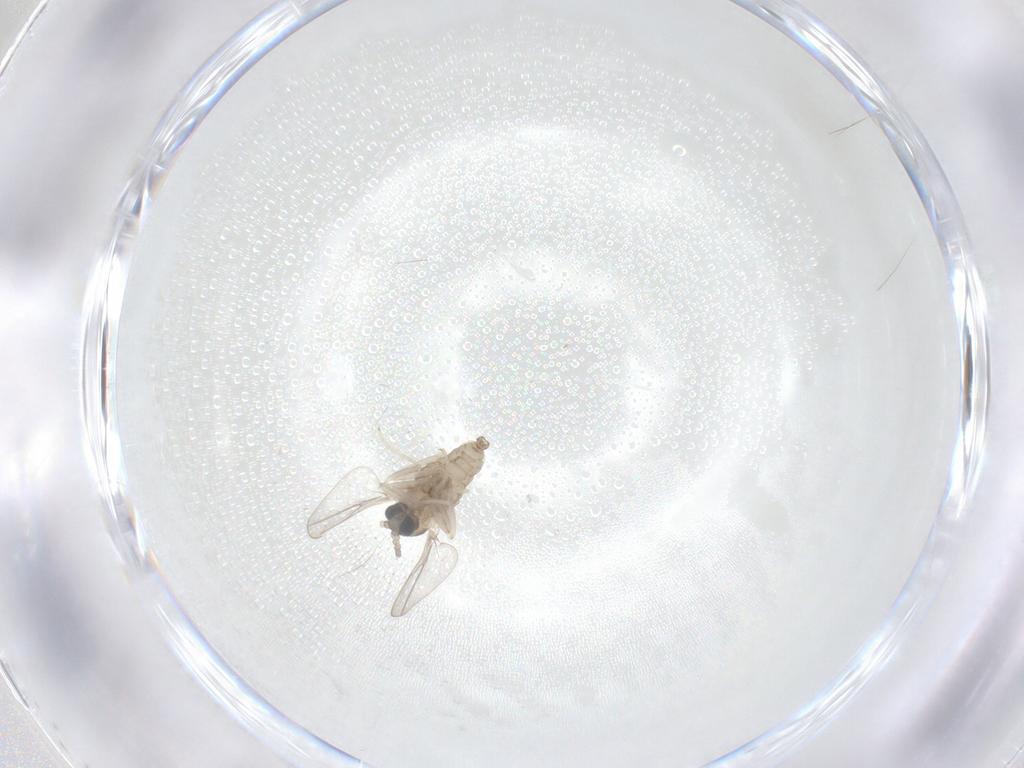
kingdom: Animalia
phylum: Arthropoda
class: Insecta
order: Diptera
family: Cecidomyiidae
